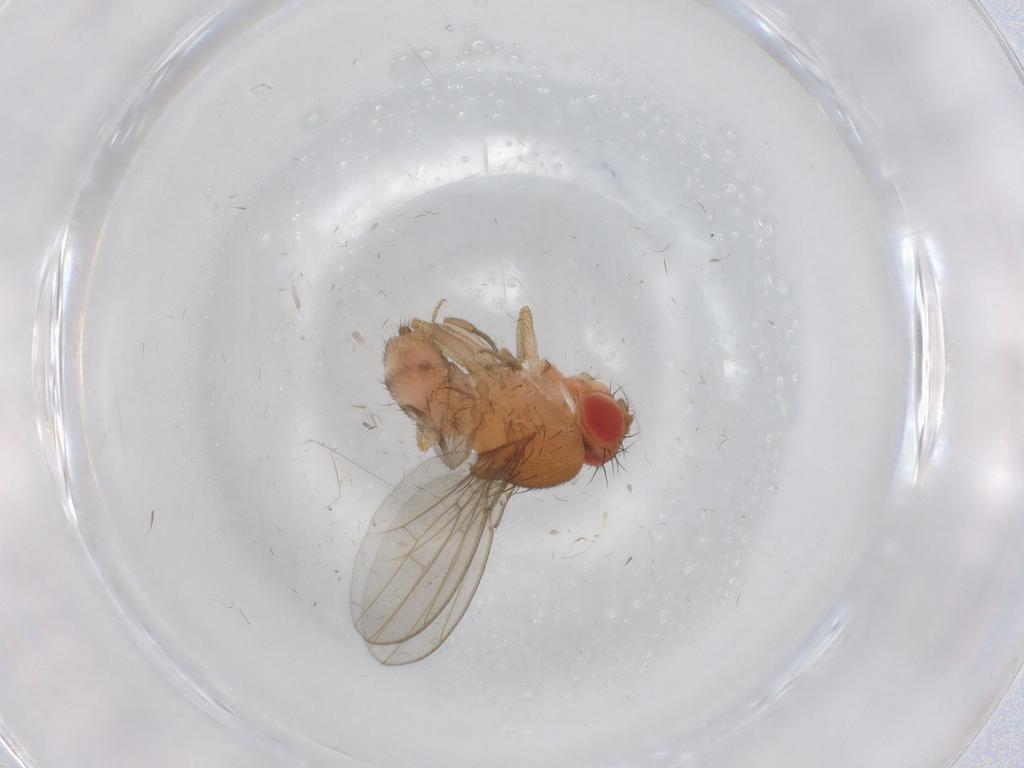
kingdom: Animalia
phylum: Arthropoda
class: Insecta
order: Diptera
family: Drosophilidae
